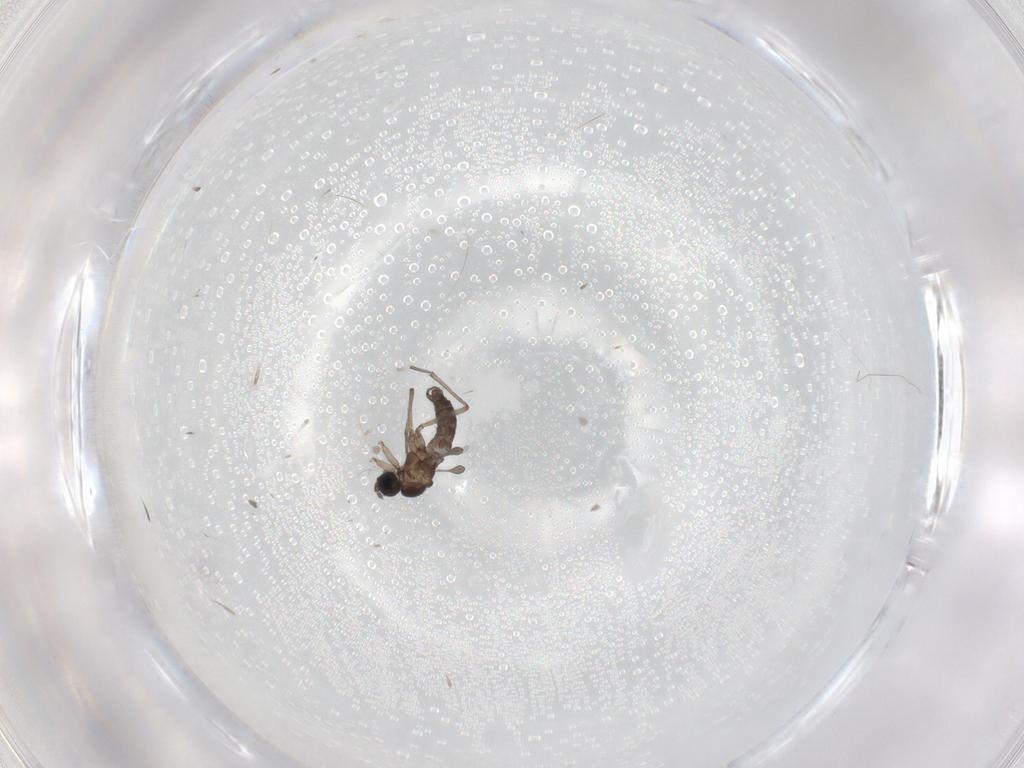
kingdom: Animalia
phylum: Arthropoda
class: Insecta
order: Diptera
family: Sciaridae
